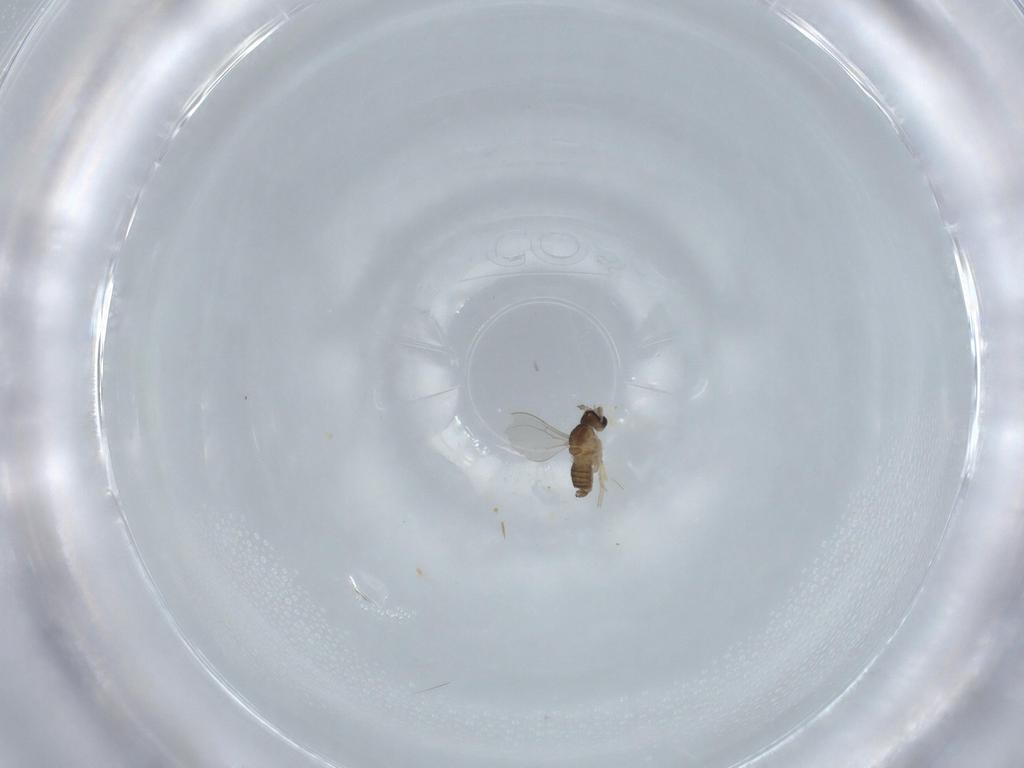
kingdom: Animalia
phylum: Arthropoda
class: Insecta
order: Diptera
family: Cecidomyiidae
